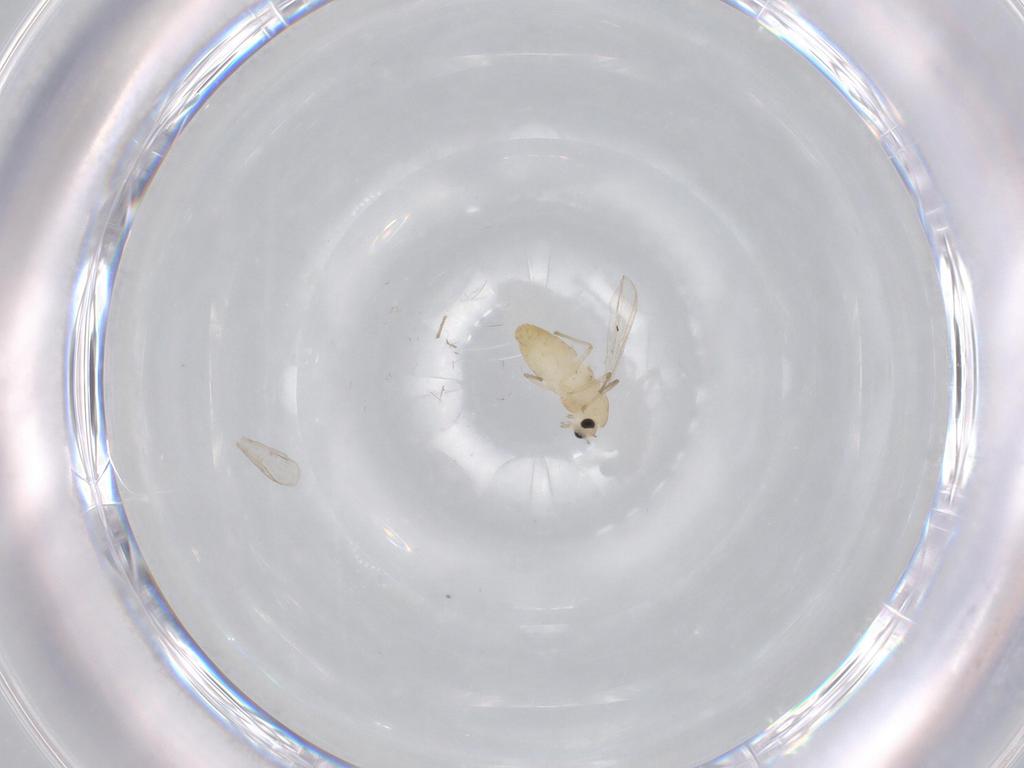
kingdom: Animalia
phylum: Arthropoda
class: Insecta
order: Diptera
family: Chironomidae
